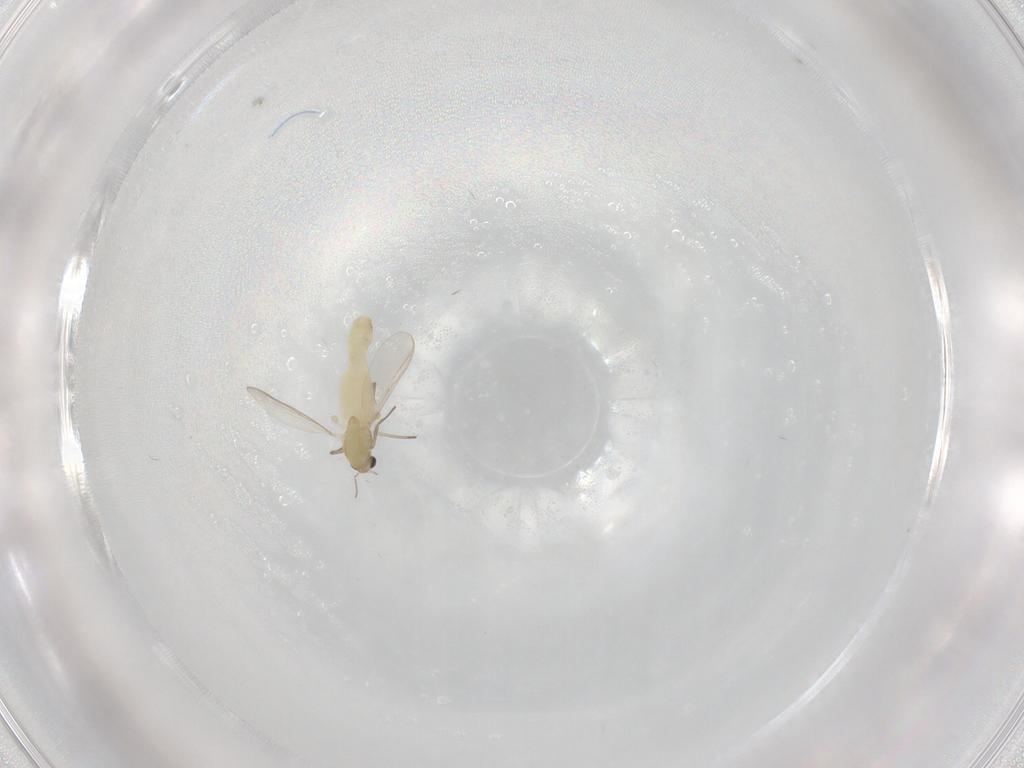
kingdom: Animalia
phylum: Arthropoda
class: Insecta
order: Diptera
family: Chironomidae
